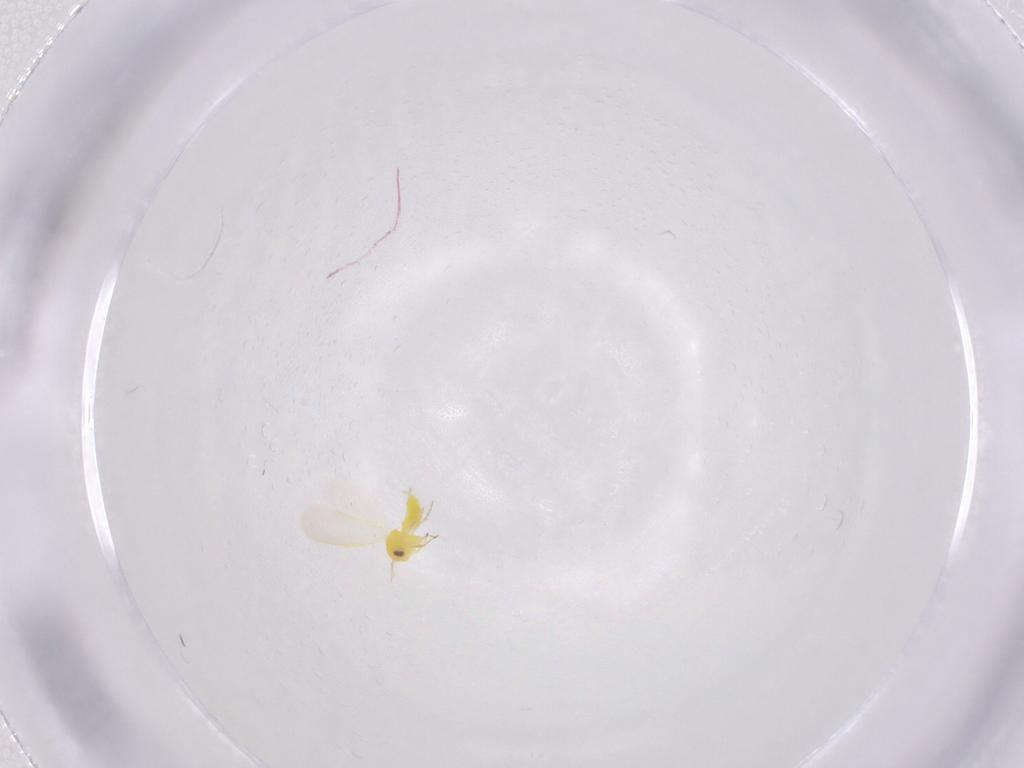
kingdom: Animalia
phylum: Arthropoda
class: Insecta
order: Hemiptera
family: Aleyrodidae
